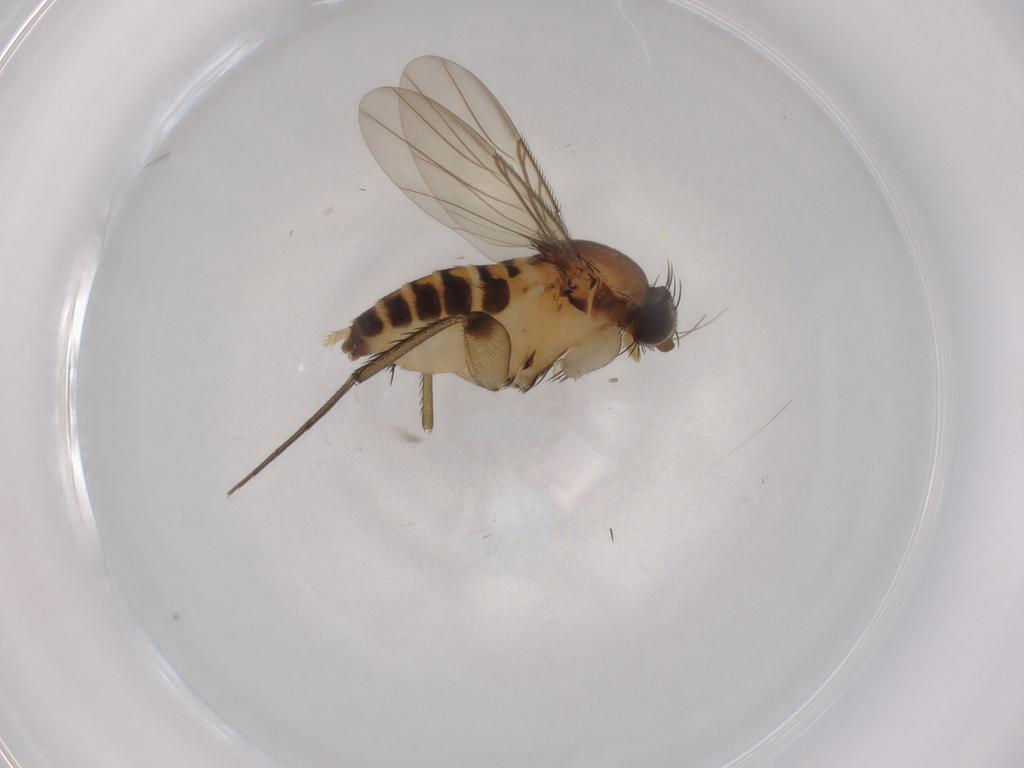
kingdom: Animalia
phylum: Arthropoda
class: Insecta
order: Diptera
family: Phoridae
